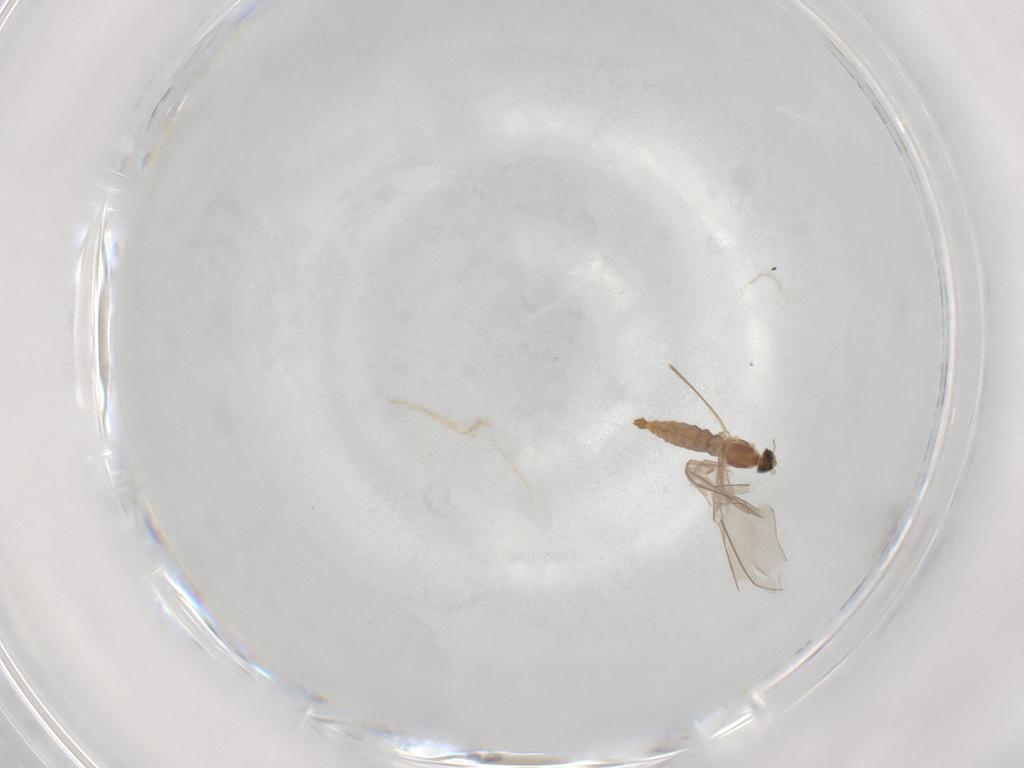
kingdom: Animalia
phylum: Arthropoda
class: Insecta
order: Diptera
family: Cecidomyiidae
